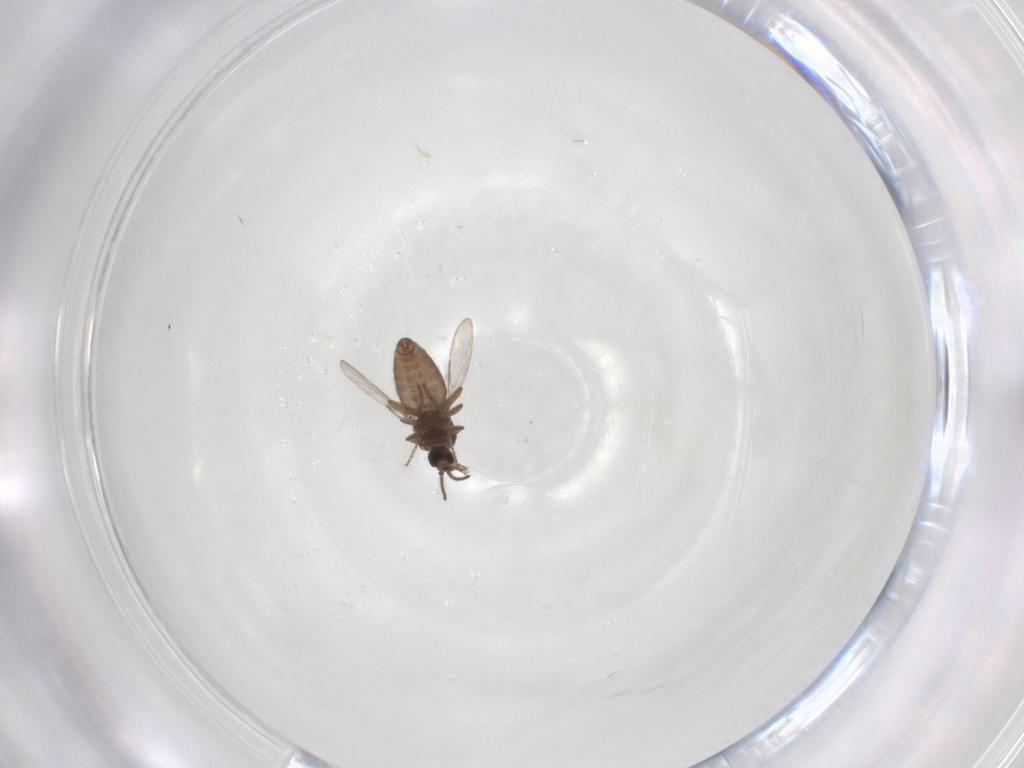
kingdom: Animalia
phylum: Arthropoda
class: Insecta
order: Diptera
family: Ceratopogonidae
